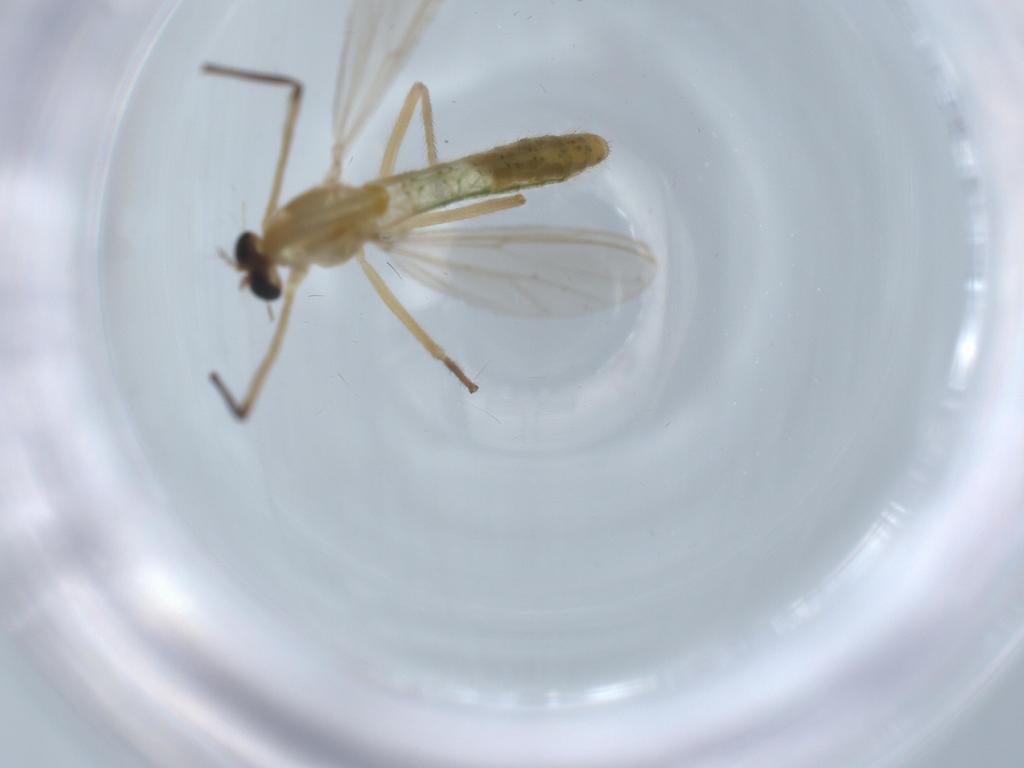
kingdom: Animalia
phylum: Arthropoda
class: Insecta
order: Diptera
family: Chironomidae
